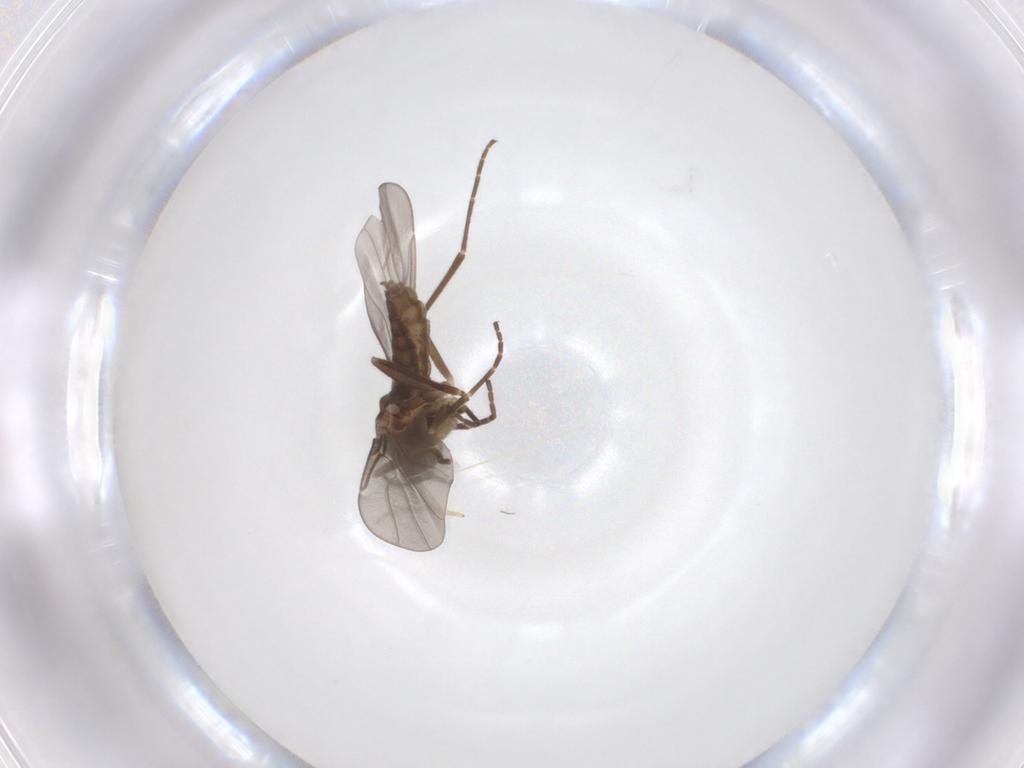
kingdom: Animalia
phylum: Arthropoda
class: Insecta
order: Diptera
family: Cecidomyiidae
